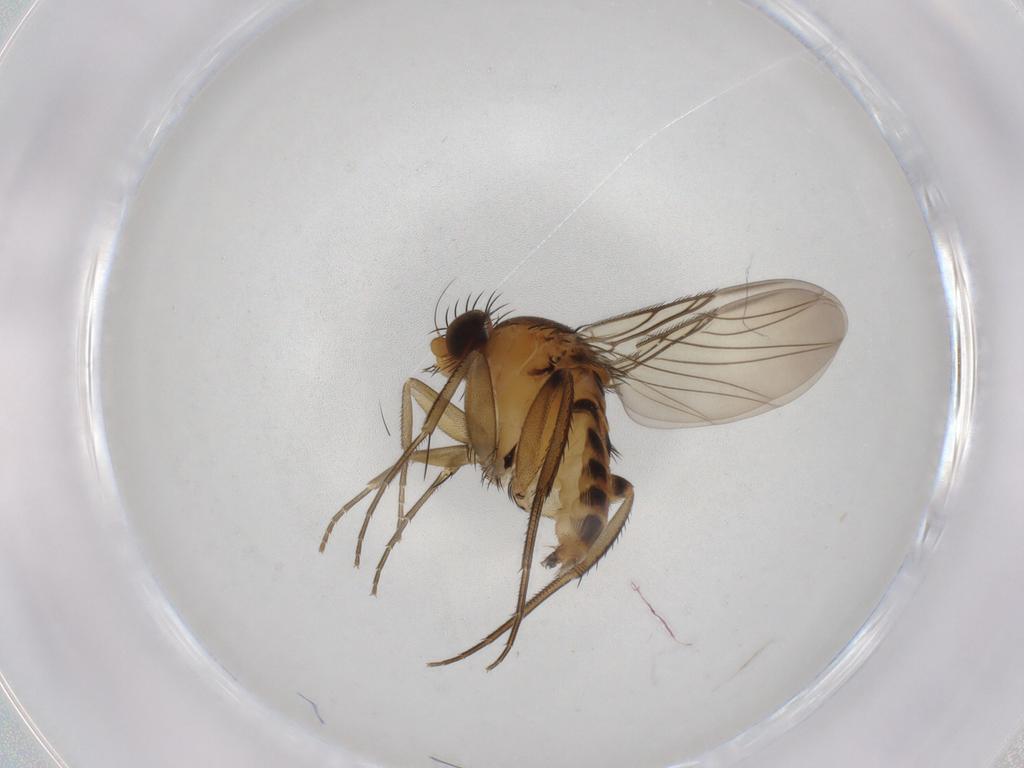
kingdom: Animalia
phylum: Arthropoda
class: Insecta
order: Diptera
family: Phoridae
